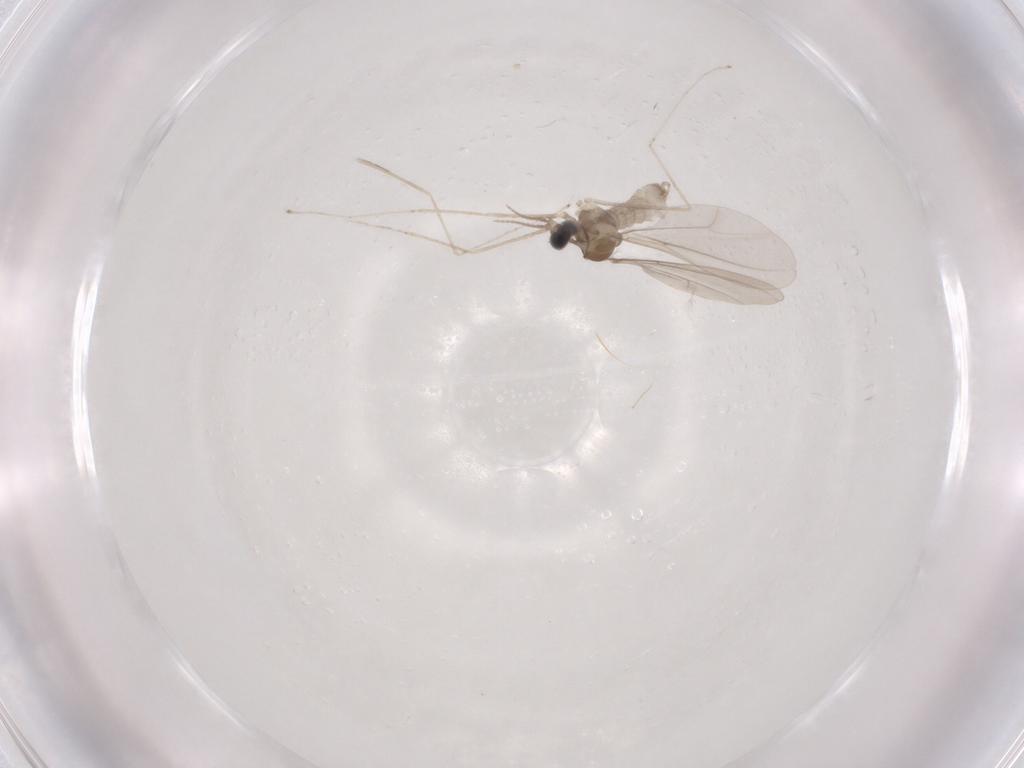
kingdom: Animalia
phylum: Arthropoda
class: Insecta
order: Diptera
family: Cecidomyiidae
